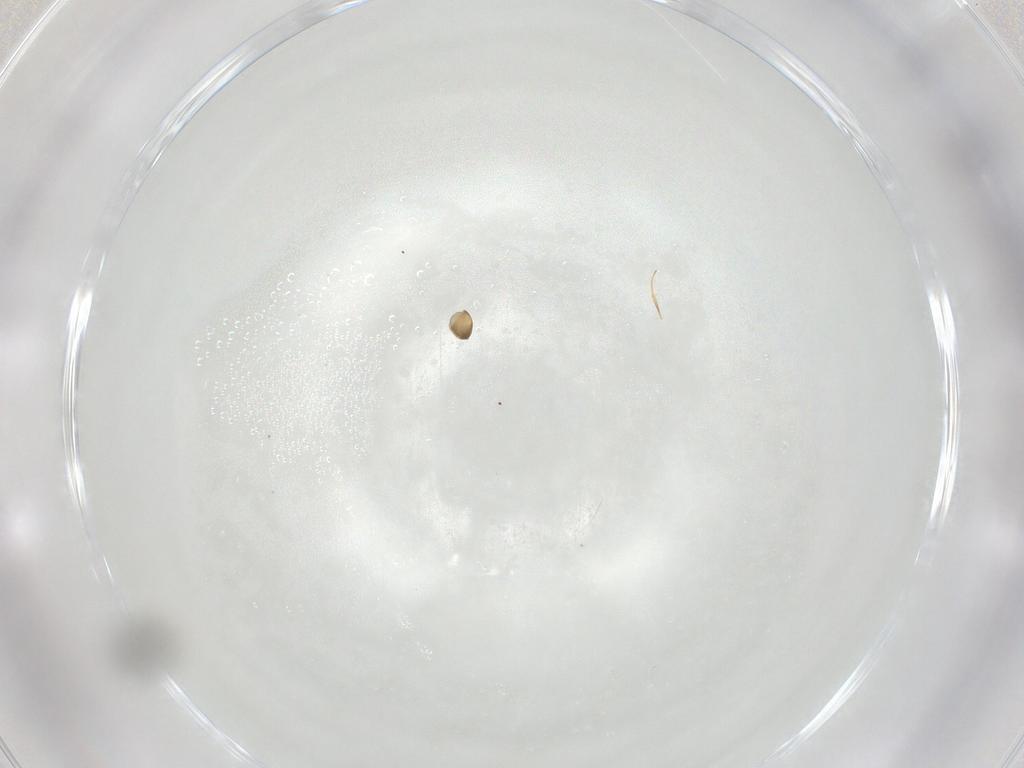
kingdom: Animalia
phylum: Arthropoda
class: Insecta
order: Hymenoptera
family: Scelionidae
